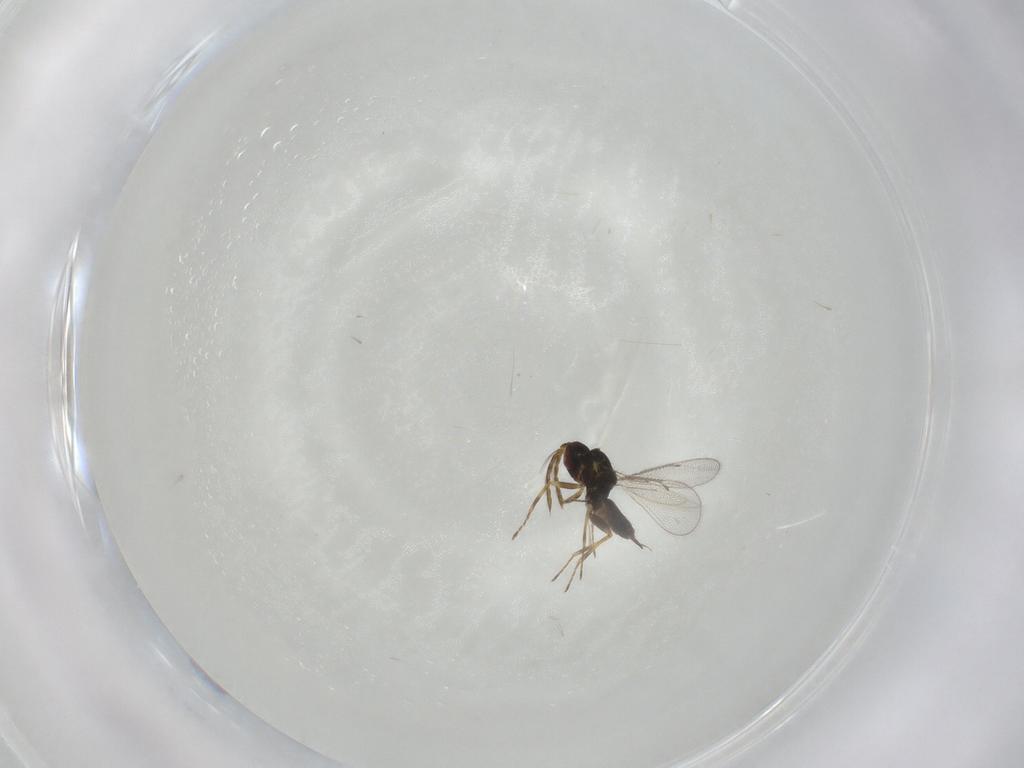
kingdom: Animalia
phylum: Arthropoda
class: Insecta
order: Hymenoptera
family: Eulophidae
